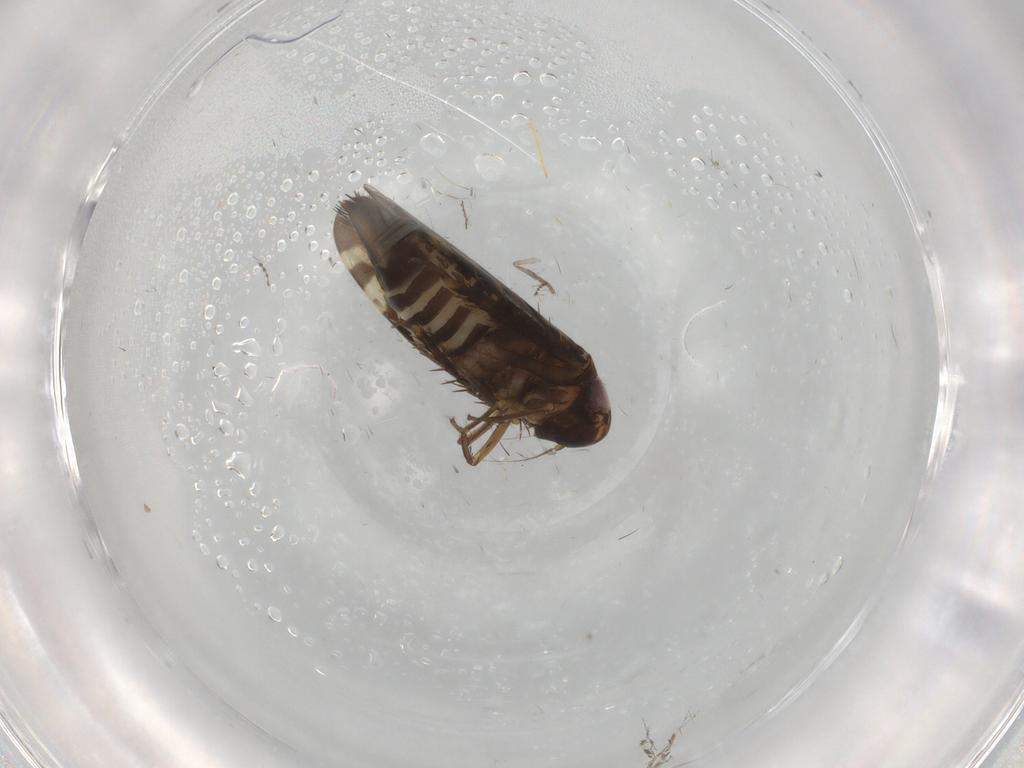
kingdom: Animalia
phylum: Arthropoda
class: Insecta
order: Hemiptera
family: Cicadellidae
